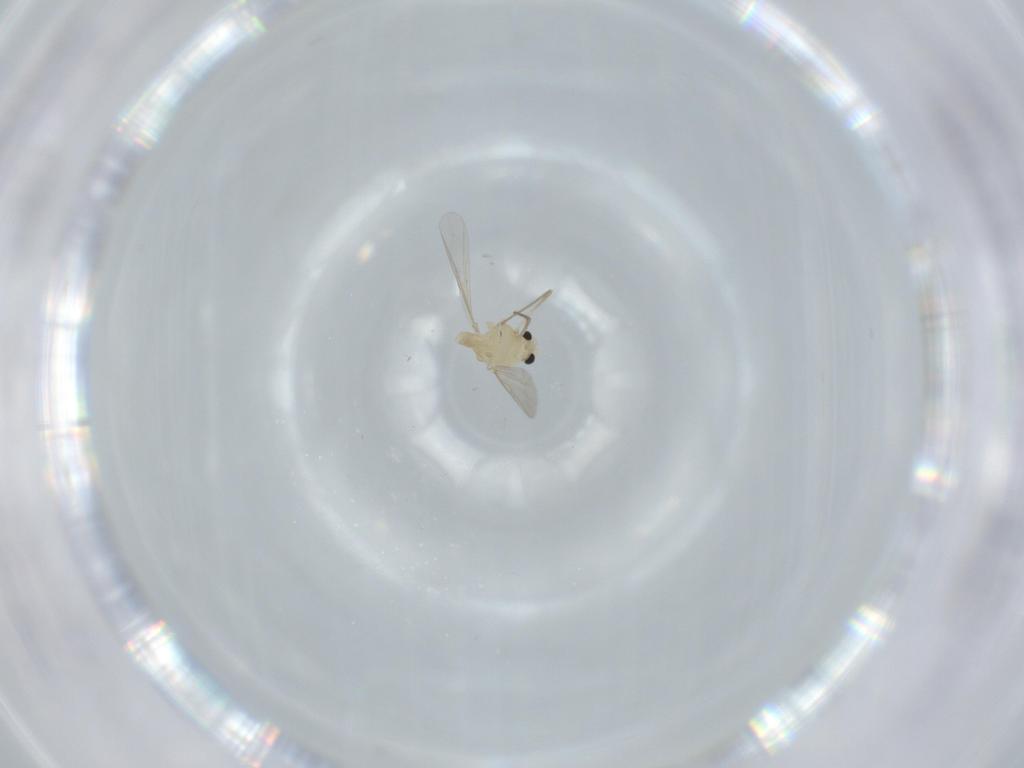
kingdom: Animalia
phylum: Arthropoda
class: Insecta
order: Diptera
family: Chironomidae
